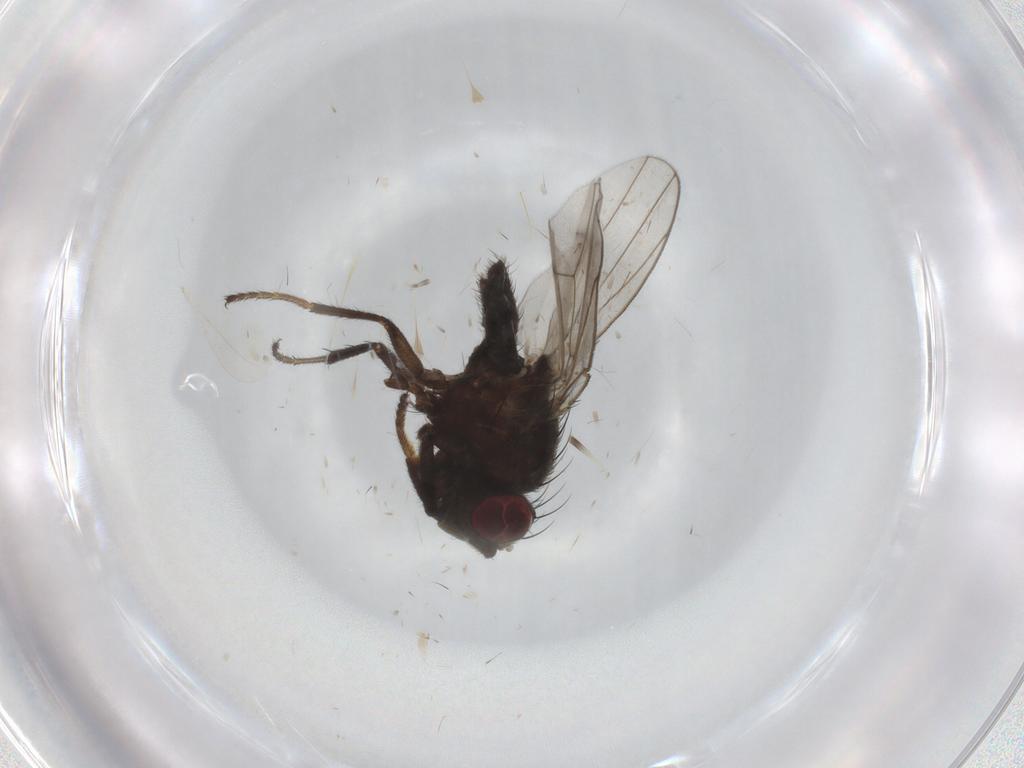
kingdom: Animalia
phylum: Arthropoda
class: Insecta
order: Diptera
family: Ephydridae
